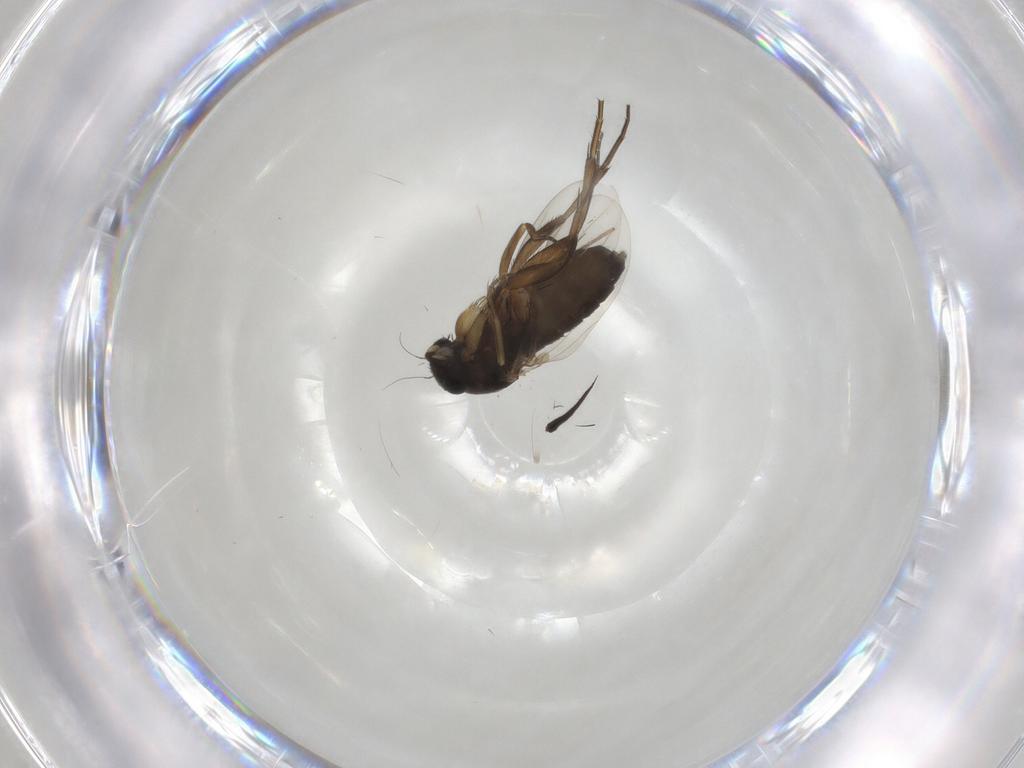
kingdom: Animalia
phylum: Arthropoda
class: Insecta
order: Diptera
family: Phoridae
